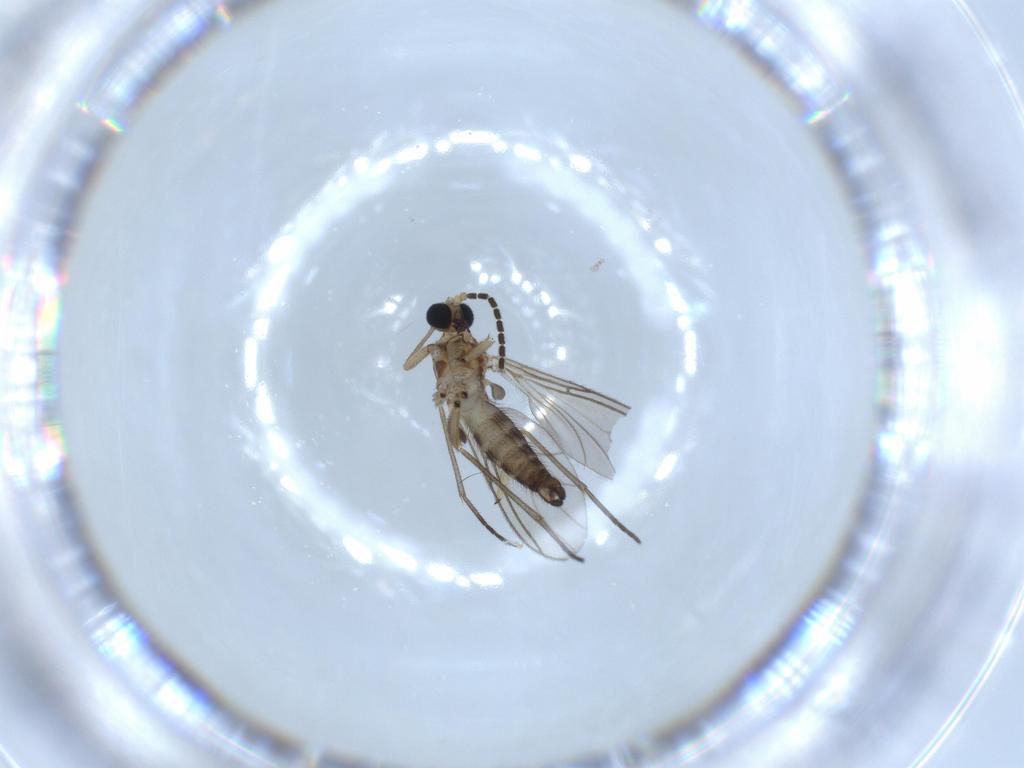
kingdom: Animalia
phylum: Arthropoda
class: Insecta
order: Diptera
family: Sciaridae
